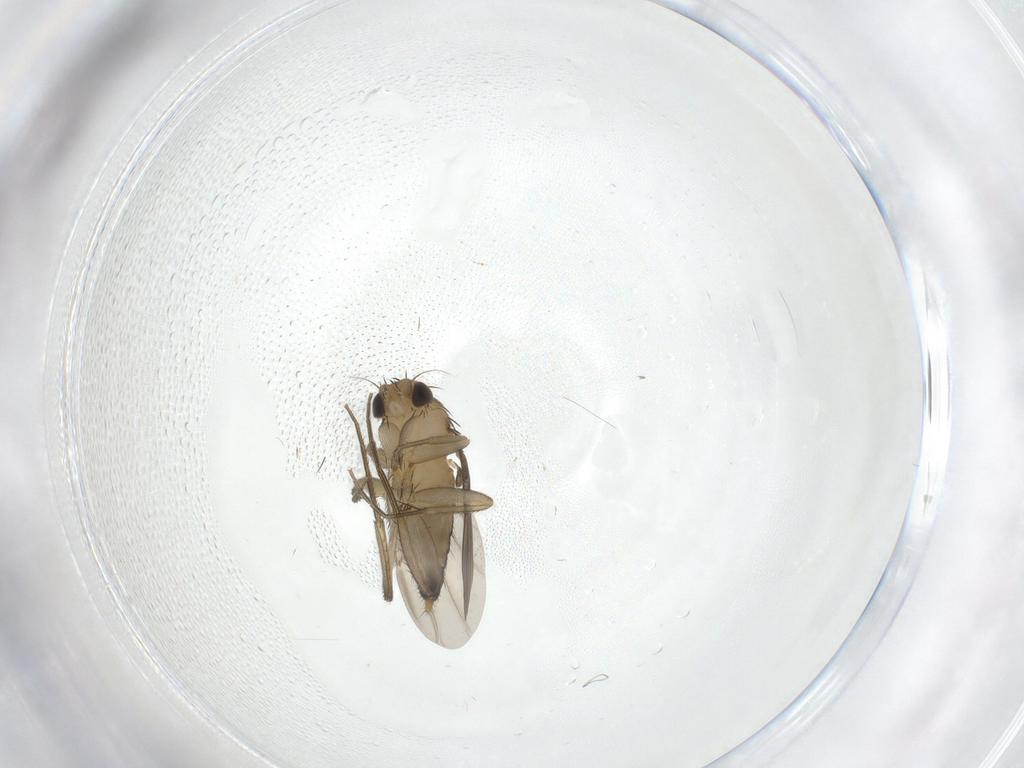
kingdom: Animalia
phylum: Arthropoda
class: Insecta
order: Diptera
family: Phoridae
